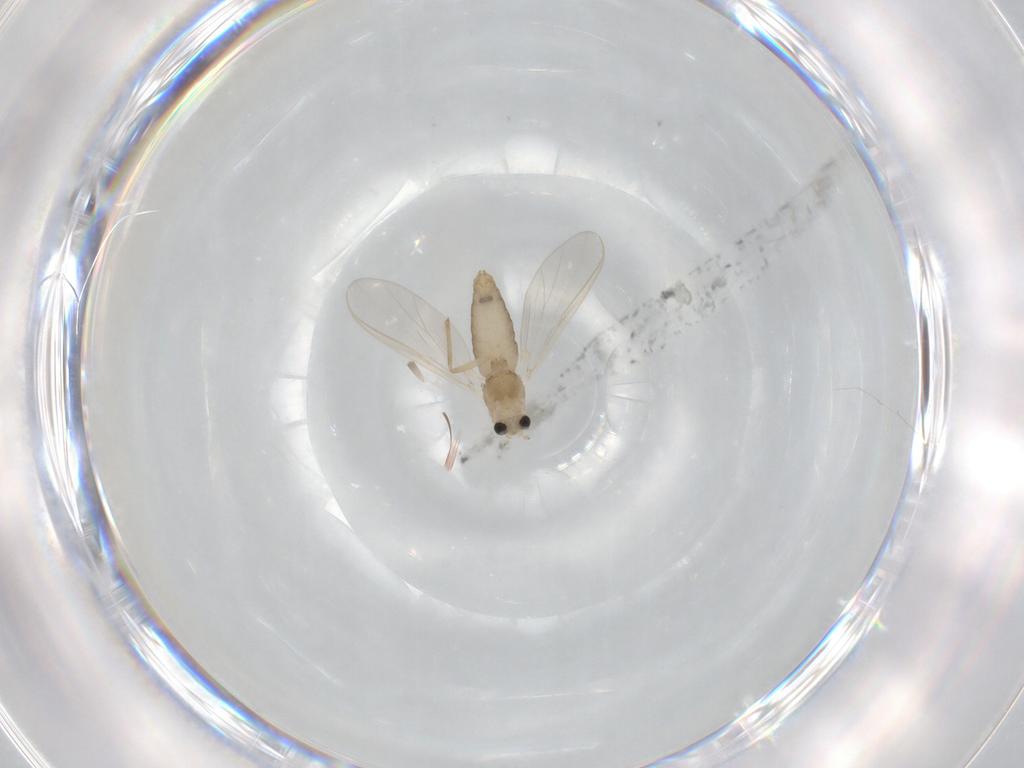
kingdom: Animalia
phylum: Arthropoda
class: Insecta
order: Diptera
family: Chironomidae
